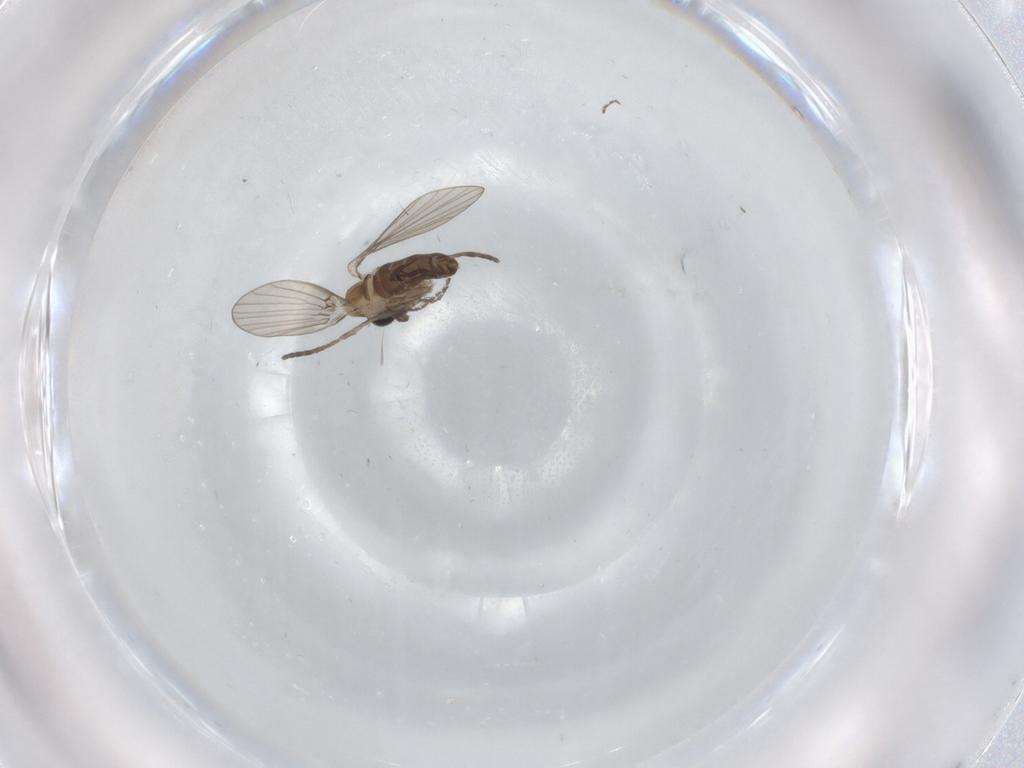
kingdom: Animalia
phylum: Arthropoda
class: Insecta
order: Diptera
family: Psychodidae
